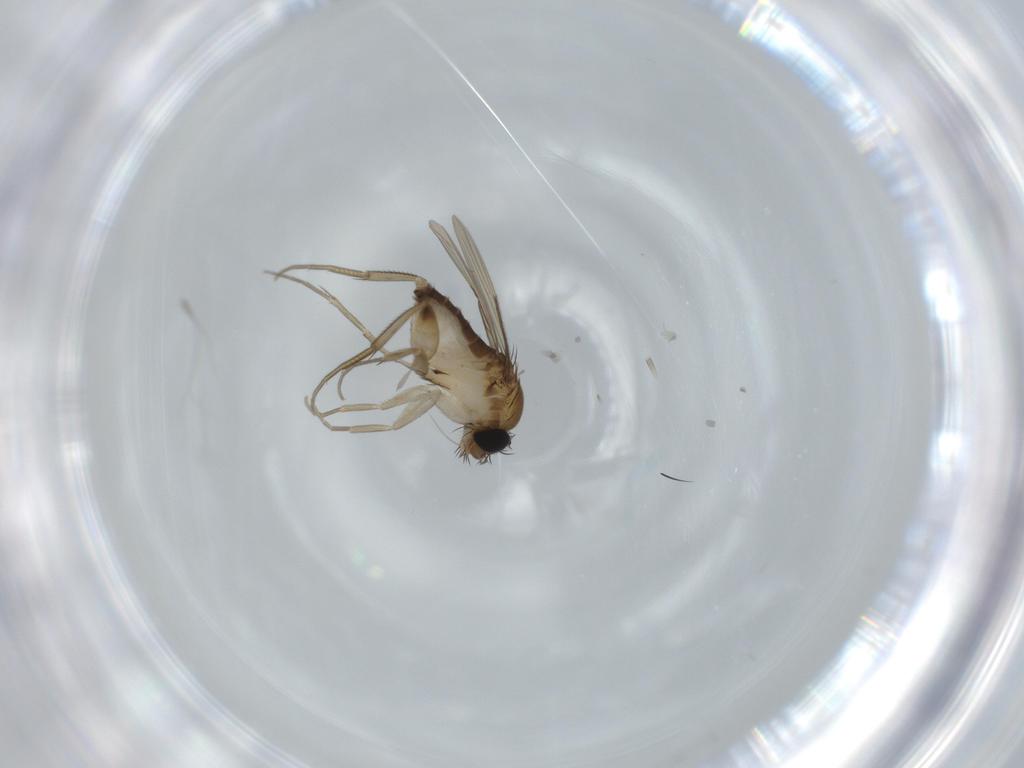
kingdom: Animalia
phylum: Arthropoda
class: Insecta
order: Diptera
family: Phoridae
